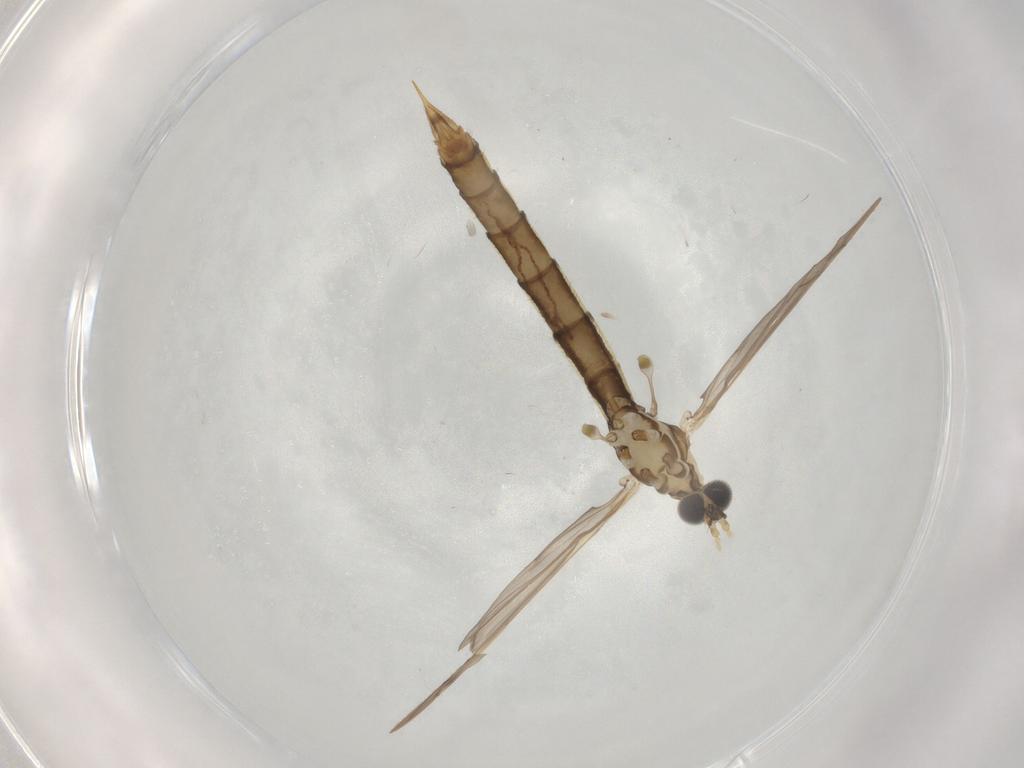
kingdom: Animalia
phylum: Arthropoda
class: Insecta
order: Diptera
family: Limoniidae
